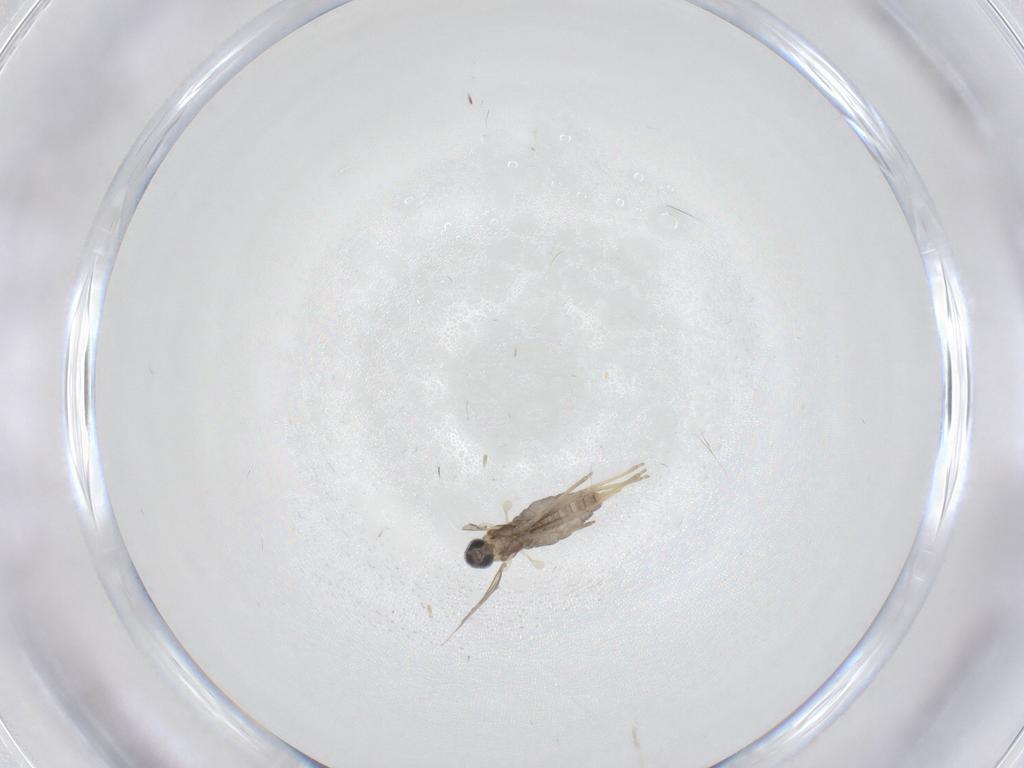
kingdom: Animalia
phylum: Arthropoda
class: Insecta
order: Diptera
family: Cecidomyiidae
